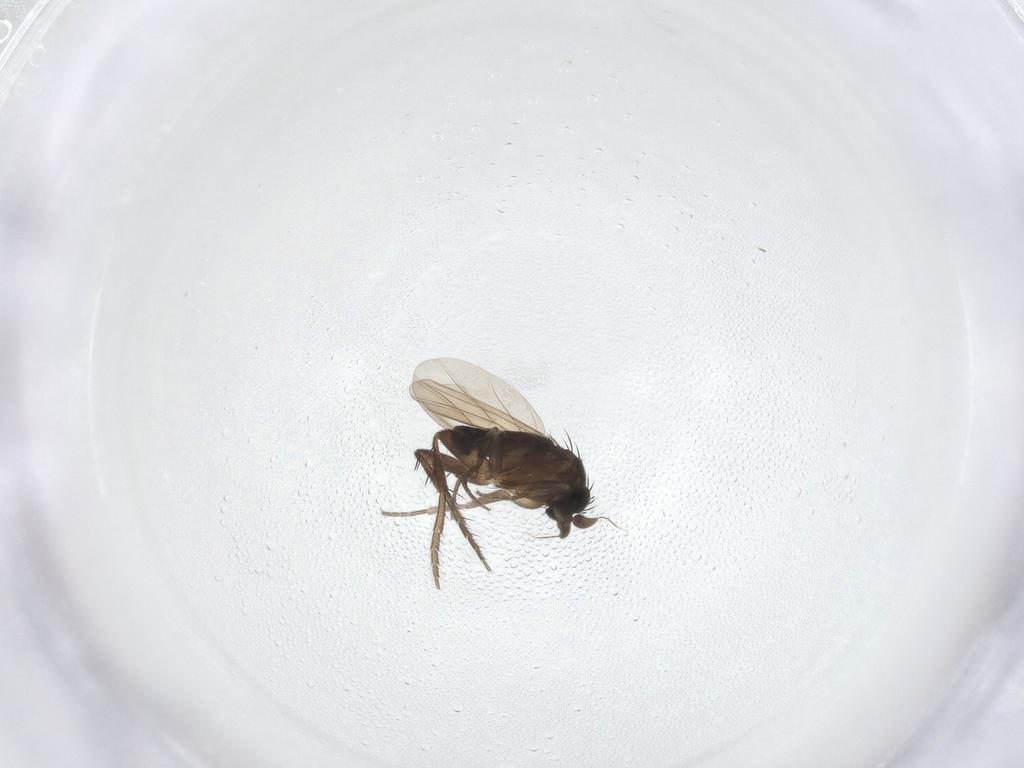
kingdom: Animalia
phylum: Arthropoda
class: Insecta
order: Diptera
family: Phoridae
